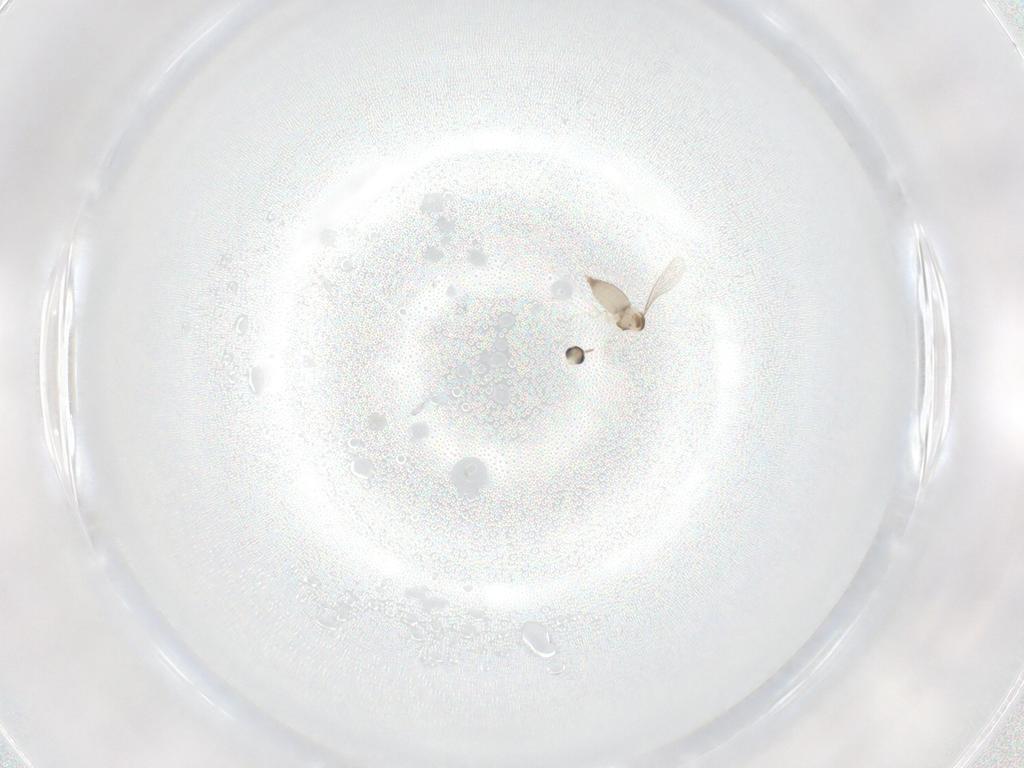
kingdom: Animalia
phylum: Arthropoda
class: Insecta
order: Diptera
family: Cecidomyiidae
